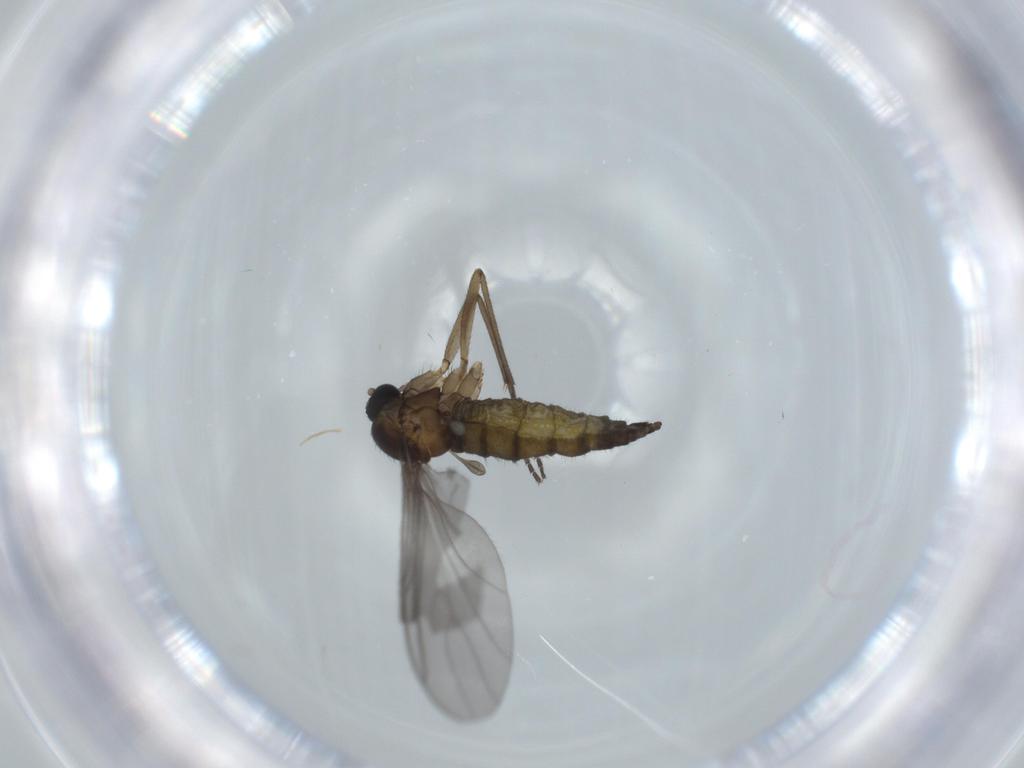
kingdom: Animalia
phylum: Arthropoda
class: Insecta
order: Diptera
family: Sciaridae
